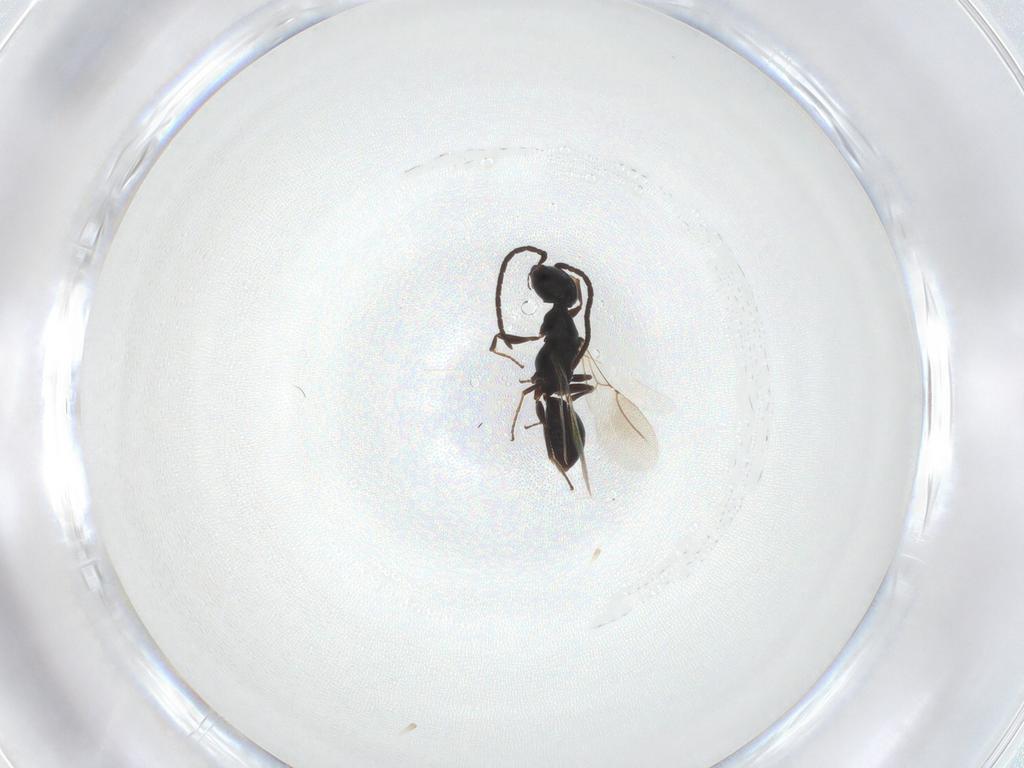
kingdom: Animalia
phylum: Arthropoda
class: Insecta
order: Hymenoptera
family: Bethylidae
